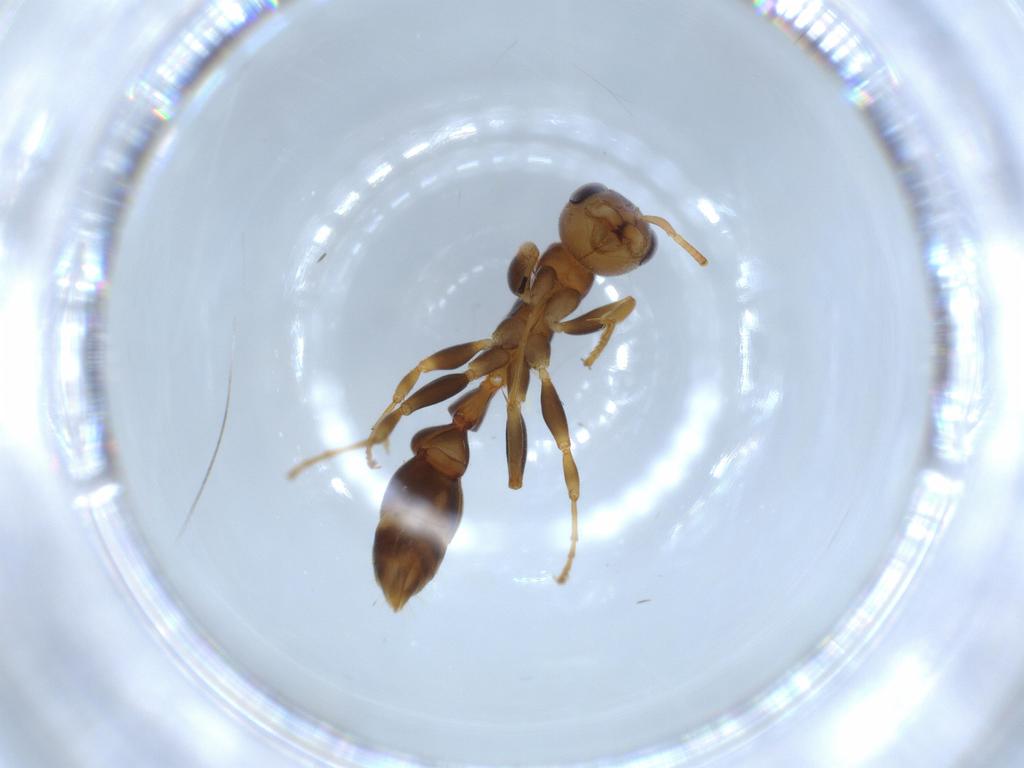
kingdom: Animalia
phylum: Arthropoda
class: Insecta
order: Hymenoptera
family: Formicidae
